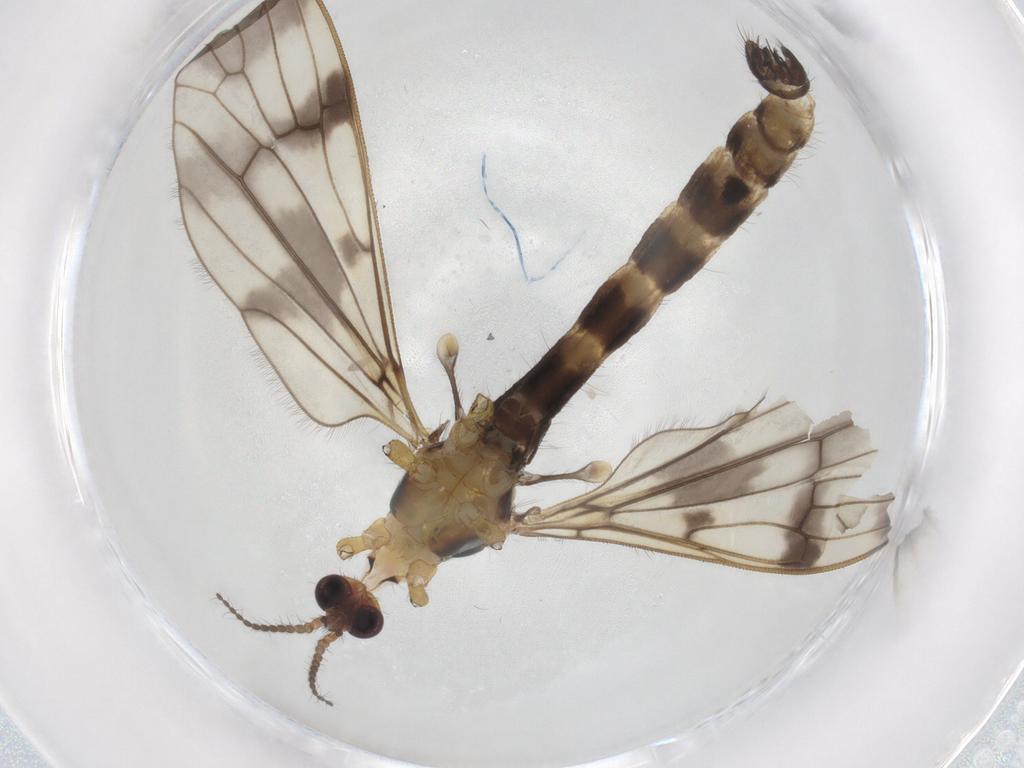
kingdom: Animalia
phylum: Arthropoda
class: Insecta
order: Diptera
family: Limoniidae
